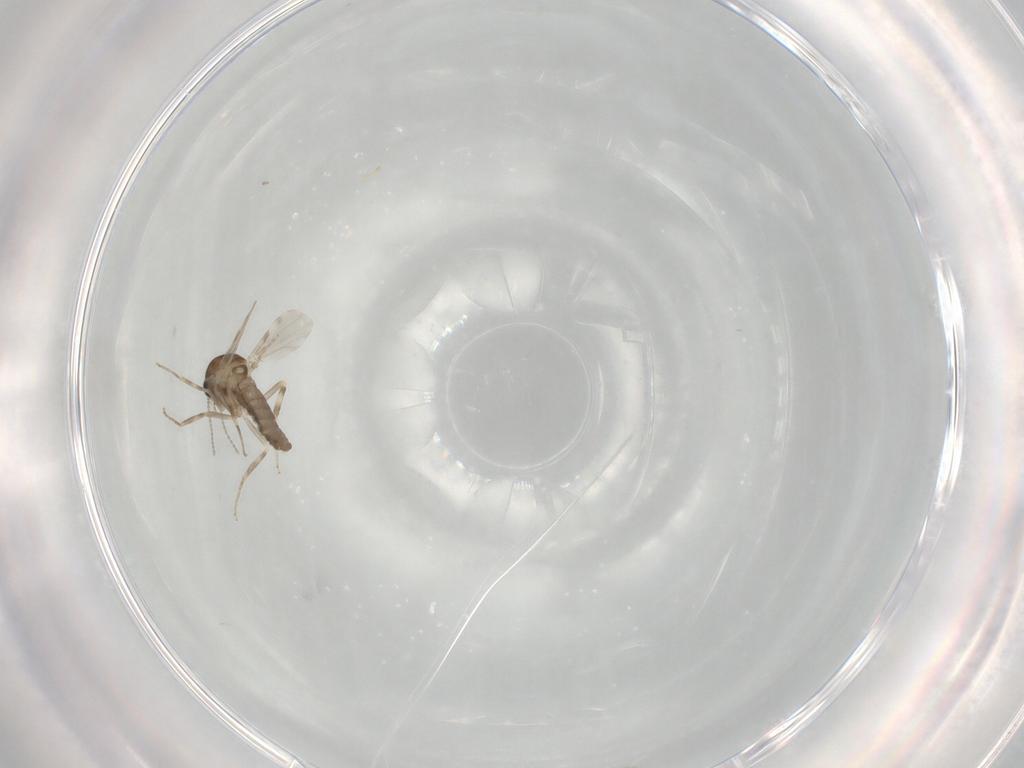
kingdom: Animalia
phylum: Arthropoda
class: Insecta
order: Diptera
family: Ceratopogonidae
